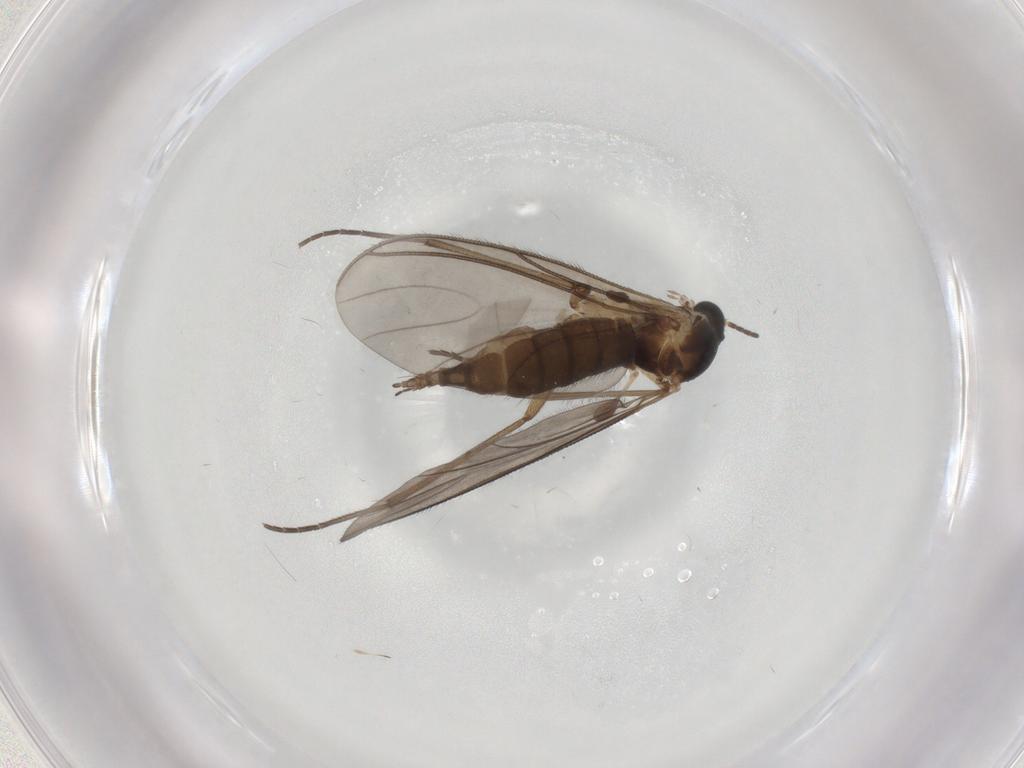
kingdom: Animalia
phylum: Arthropoda
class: Insecta
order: Diptera
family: Sciaridae
